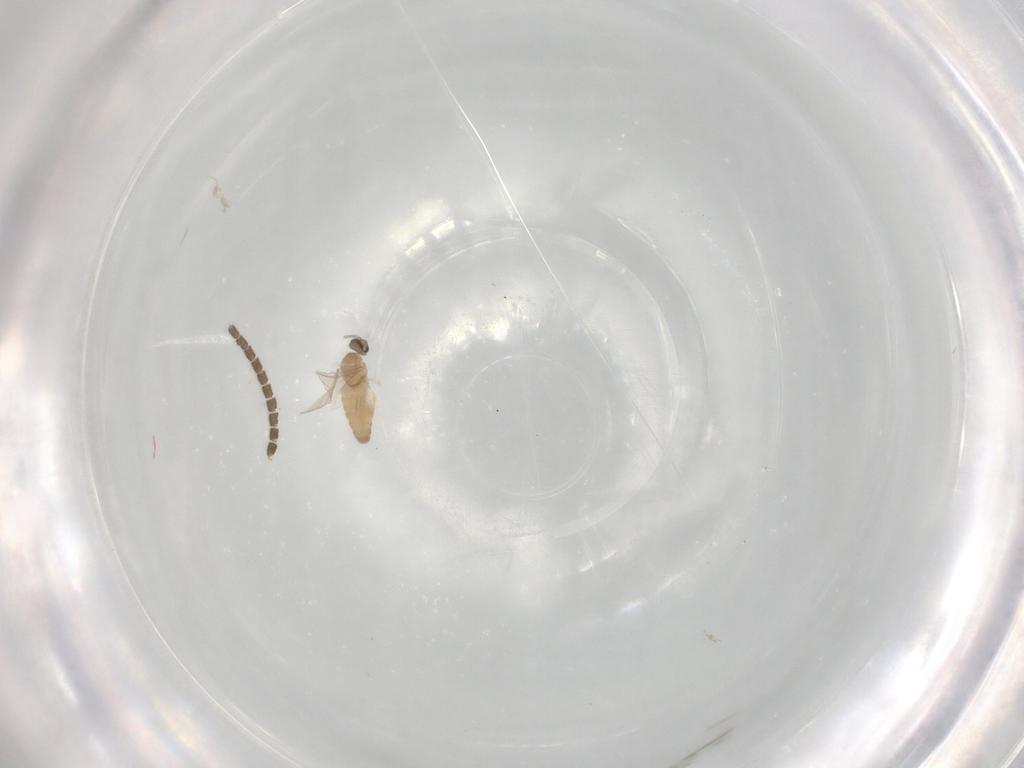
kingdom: Animalia
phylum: Arthropoda
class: Insecta
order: Diptera
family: Cecidomyiidae
